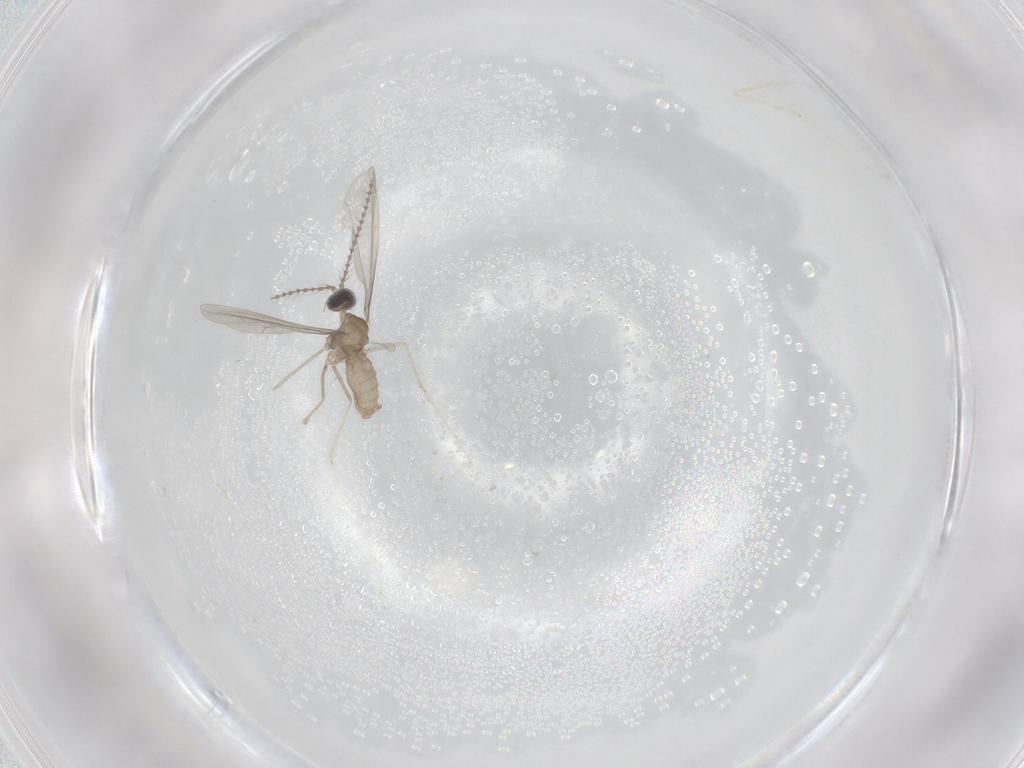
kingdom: Animalia
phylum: Arthropoda
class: Insecta
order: Diptera
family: Cecidomyiidae
